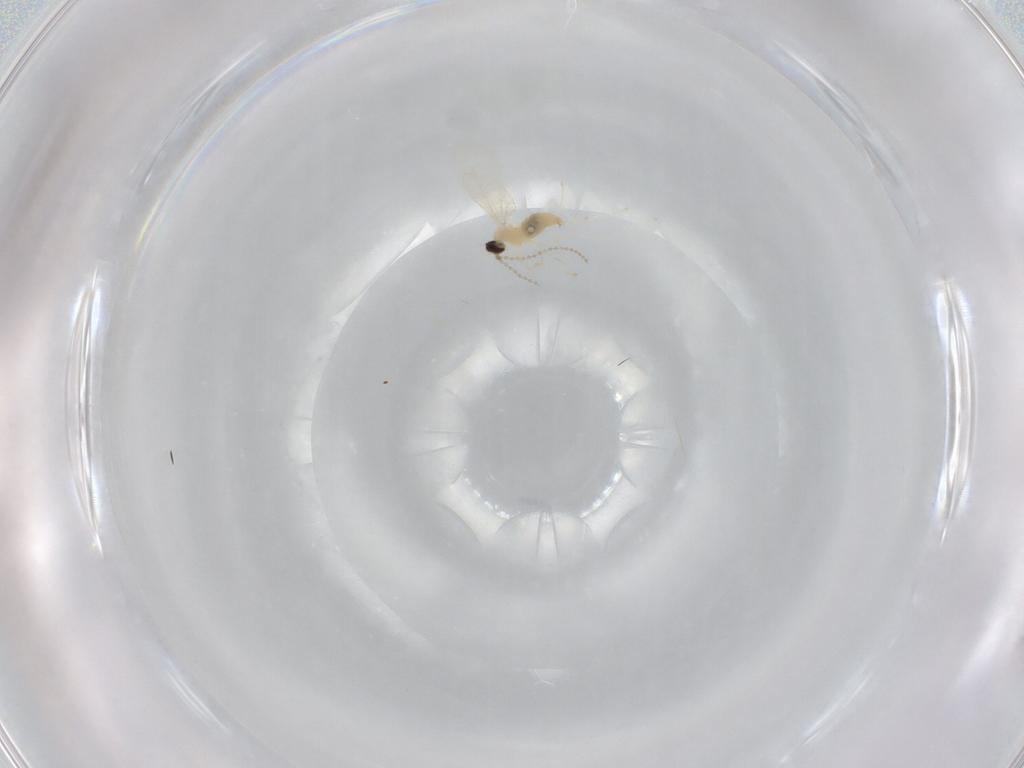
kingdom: Animalia
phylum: Arthropoda
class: Insecta
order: Diptera
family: Cecidomyiidae
